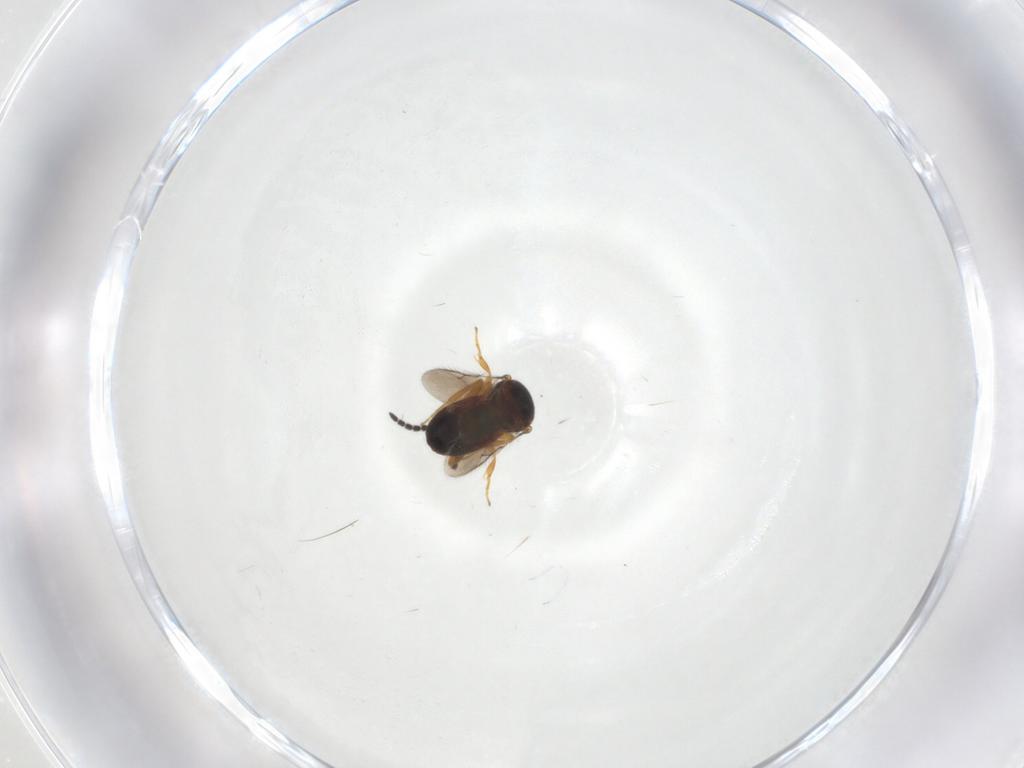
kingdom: Animalia
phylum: Arthropoda
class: Insecta
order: Hymenoptera
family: Scelionidae
